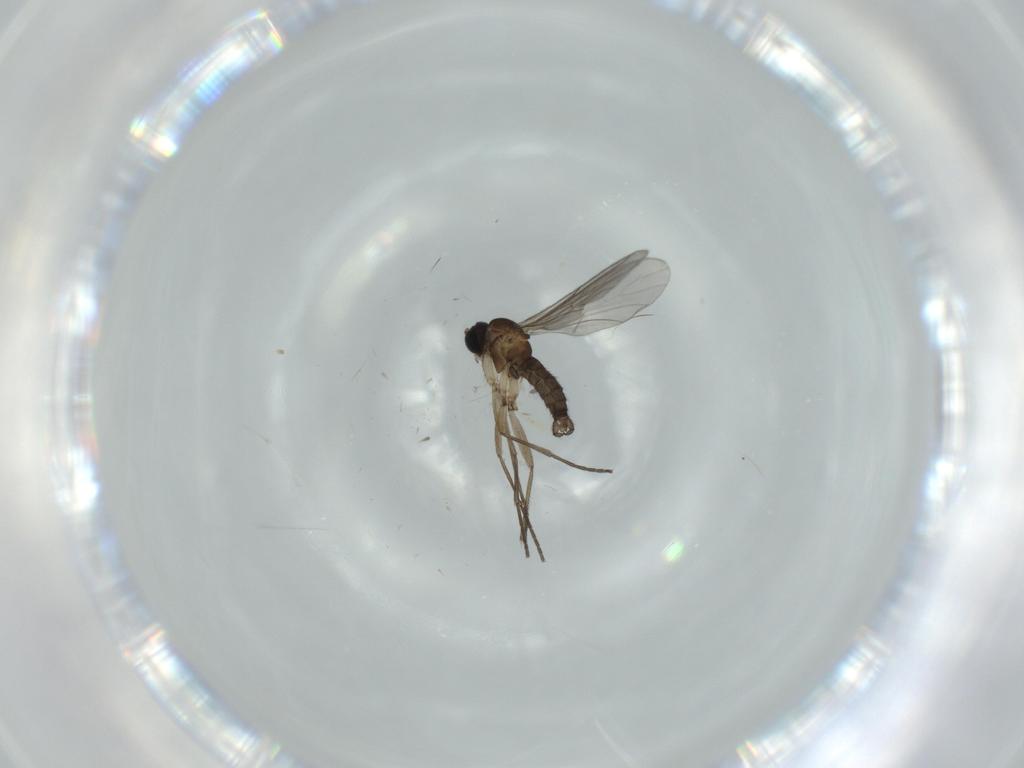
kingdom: Animalia
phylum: Arthropoda
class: Insecta
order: Diptera
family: Sciaridae
